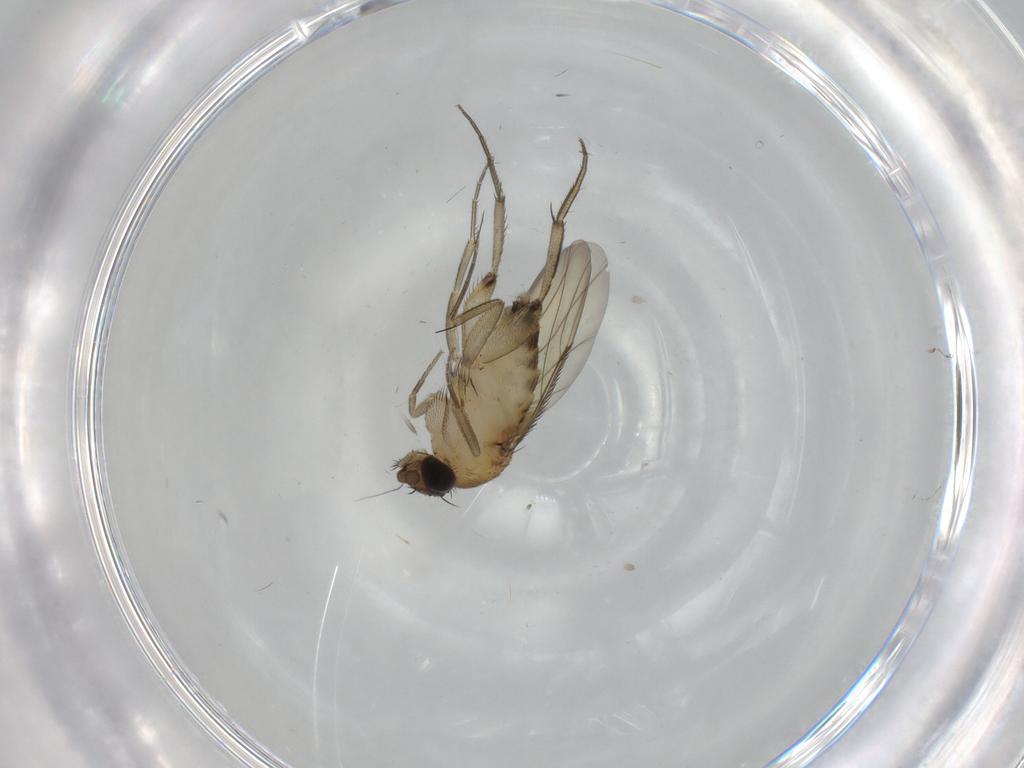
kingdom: Animalia
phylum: Arthropoda
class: Insecta
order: Diptera
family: Phoridae
